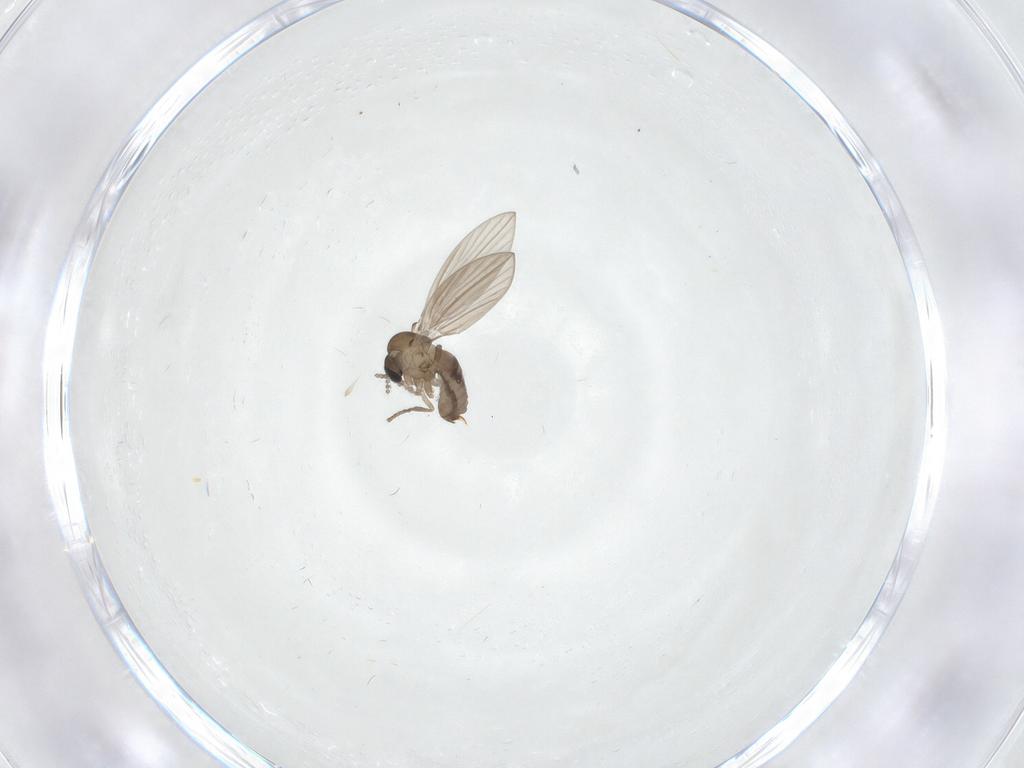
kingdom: Animalia
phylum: Arthropoda
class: Insecta
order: Diptera
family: Psychodidae
